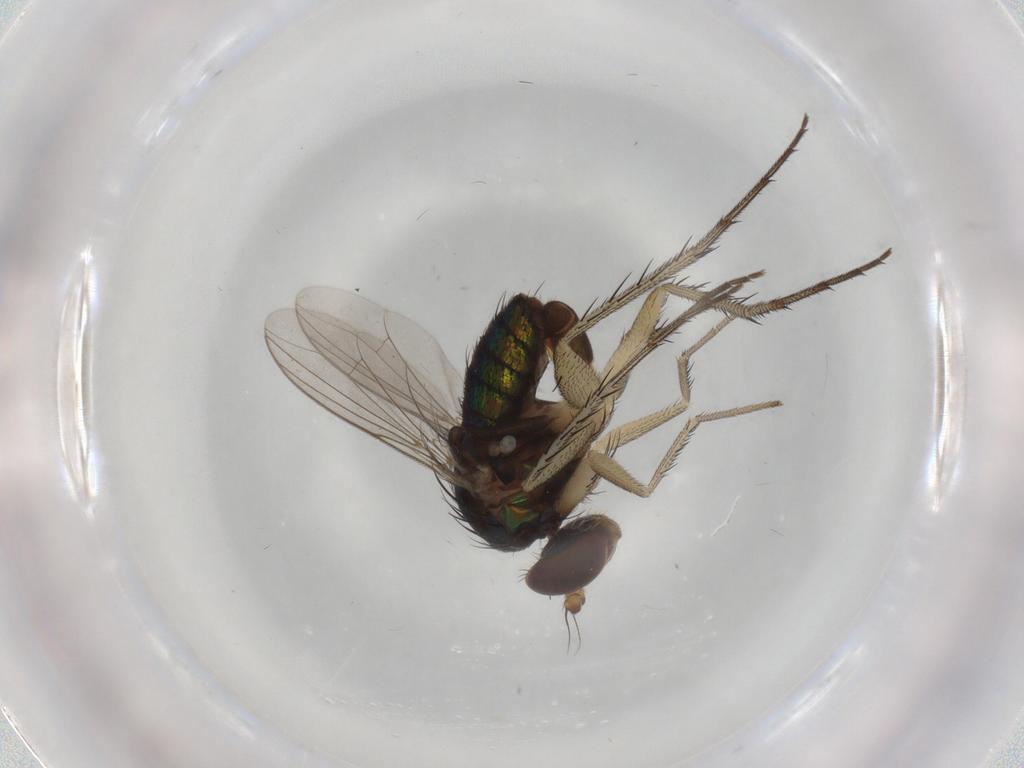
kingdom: Animalia
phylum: Arthropoda
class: Insecta
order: Diptera
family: Dolichopodidae
